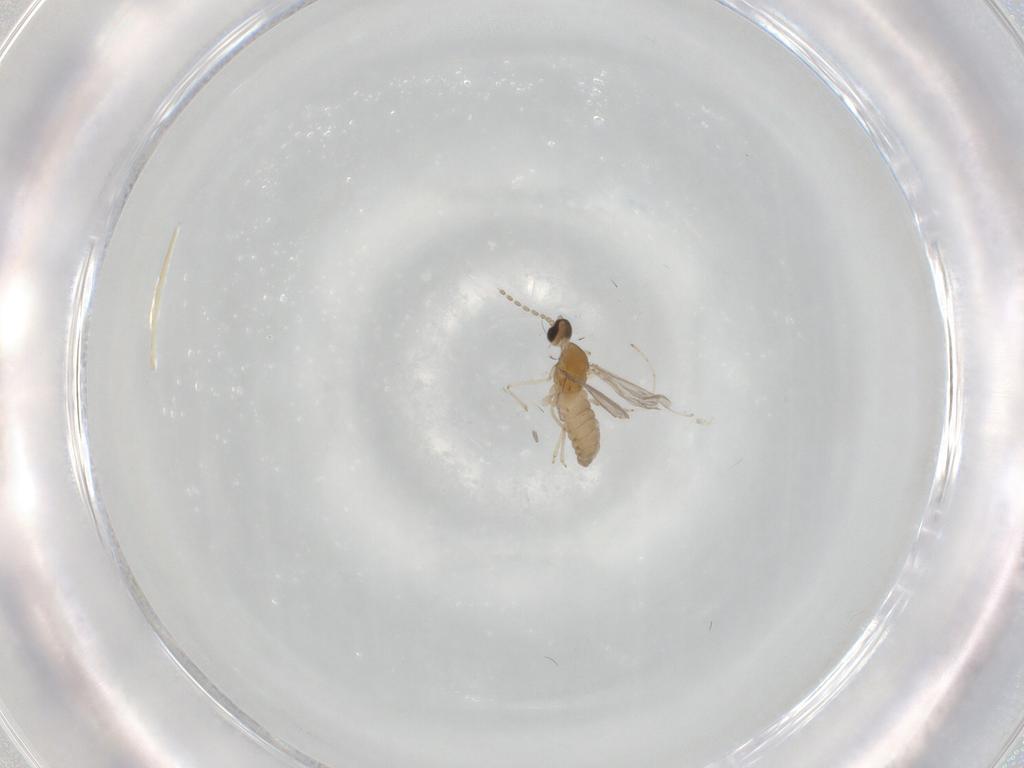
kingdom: Animalia
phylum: Arthropoda
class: Insecta
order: Diptera
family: Phoridae
